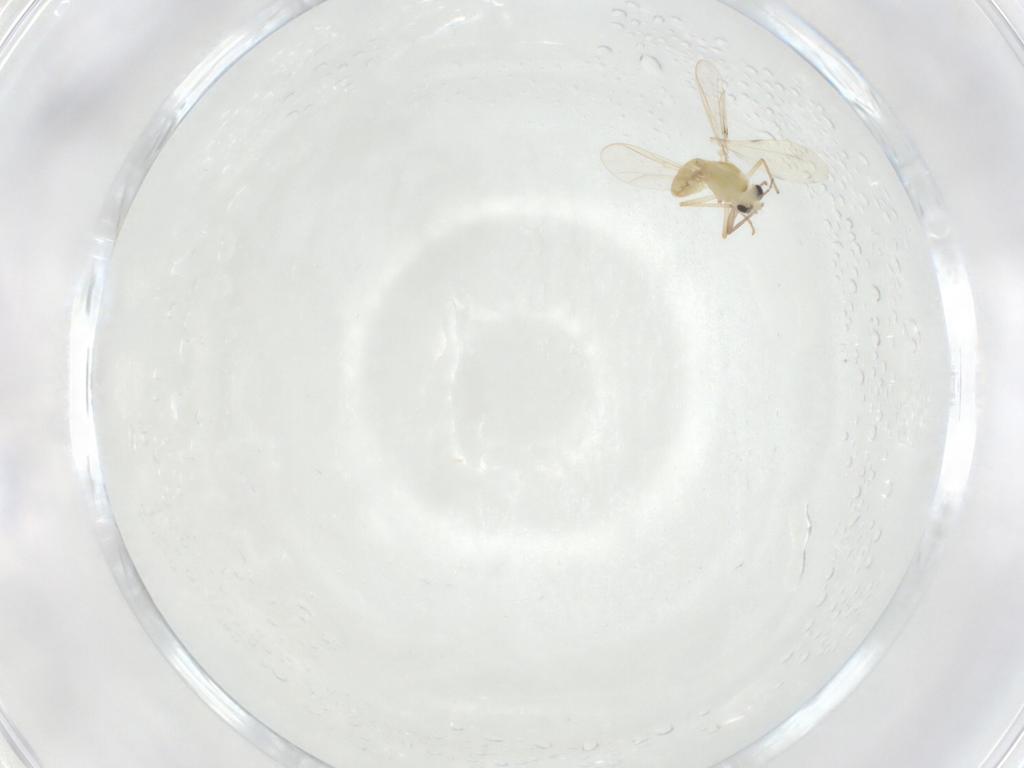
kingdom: Animalia
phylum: Arthropoda
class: Insecta
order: Diptera
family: Chironomidae
